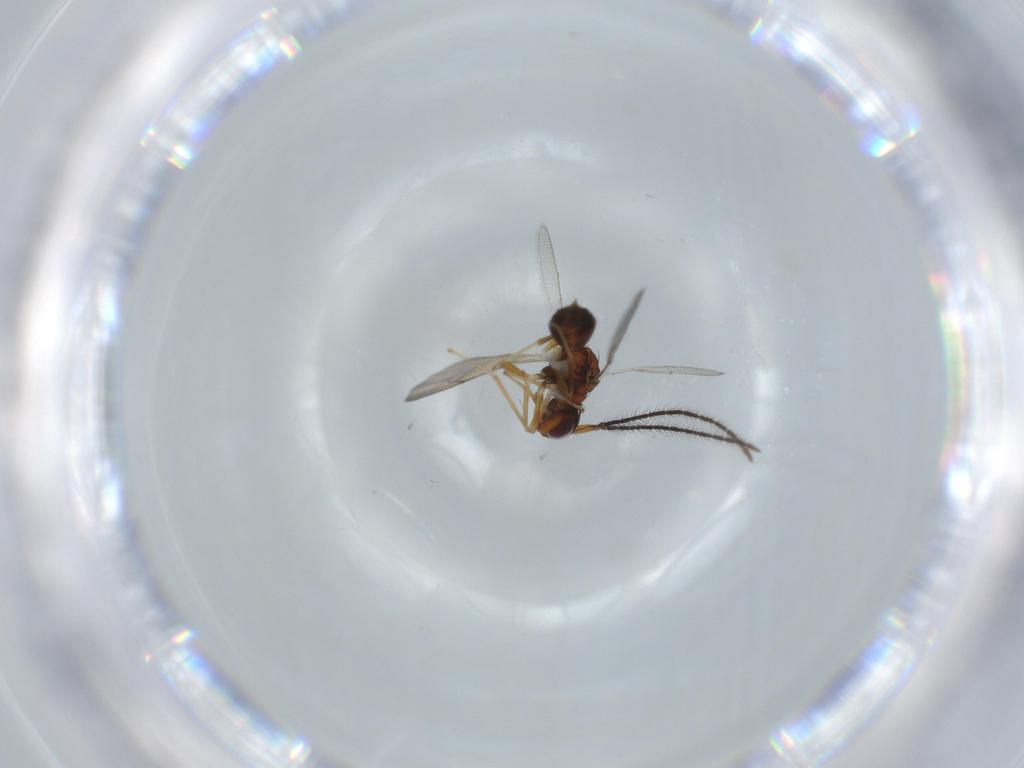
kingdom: Animalia
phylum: Arthropoda
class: Insecta
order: Hymenoptera
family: Diparidae
